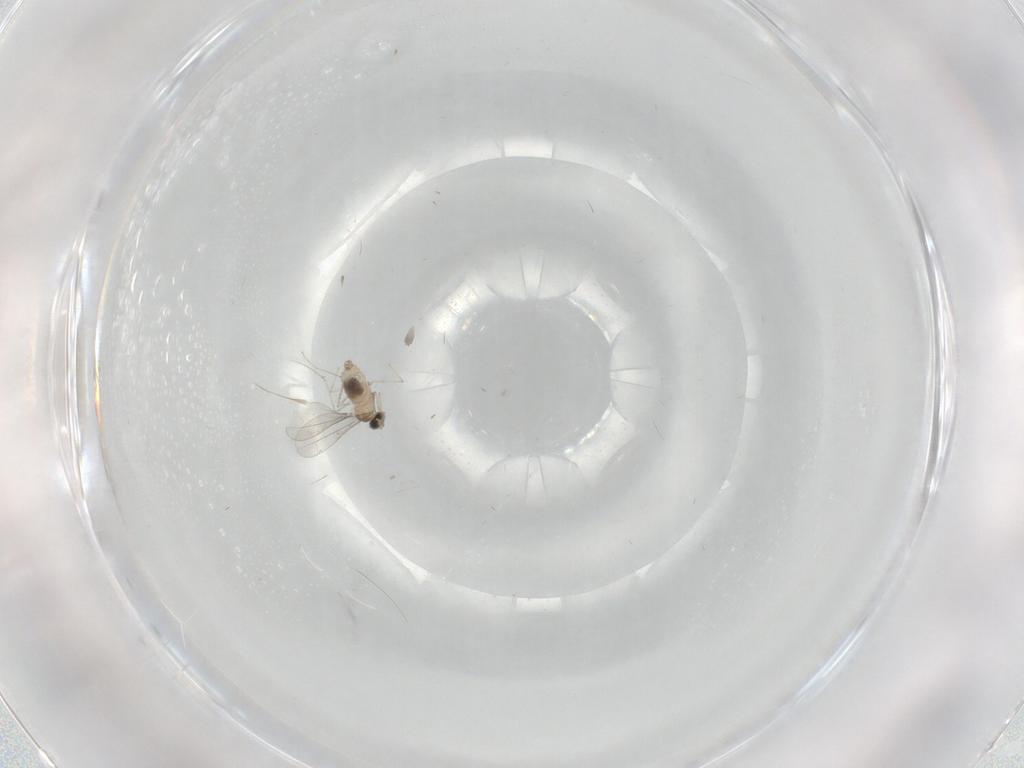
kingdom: Animalia
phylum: Arthropoda
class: Insecta
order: Diptera
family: Cecidomyiidae
